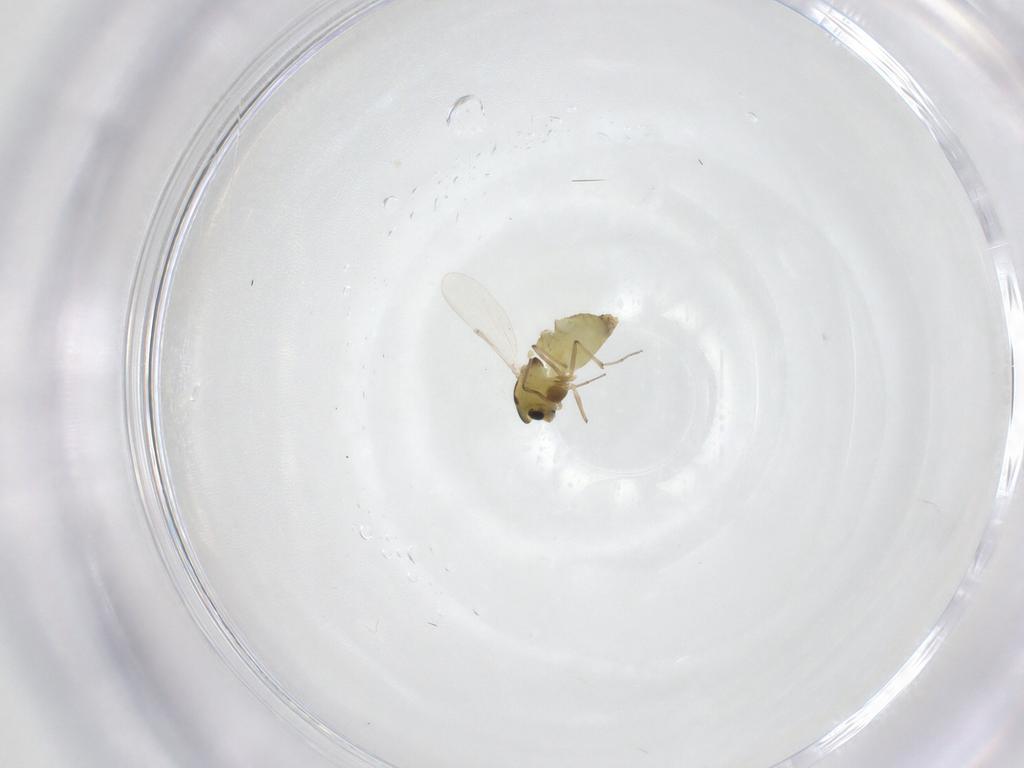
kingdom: Animalia
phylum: Arthropoda
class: Insecta
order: Diptera
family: Chironomidae
